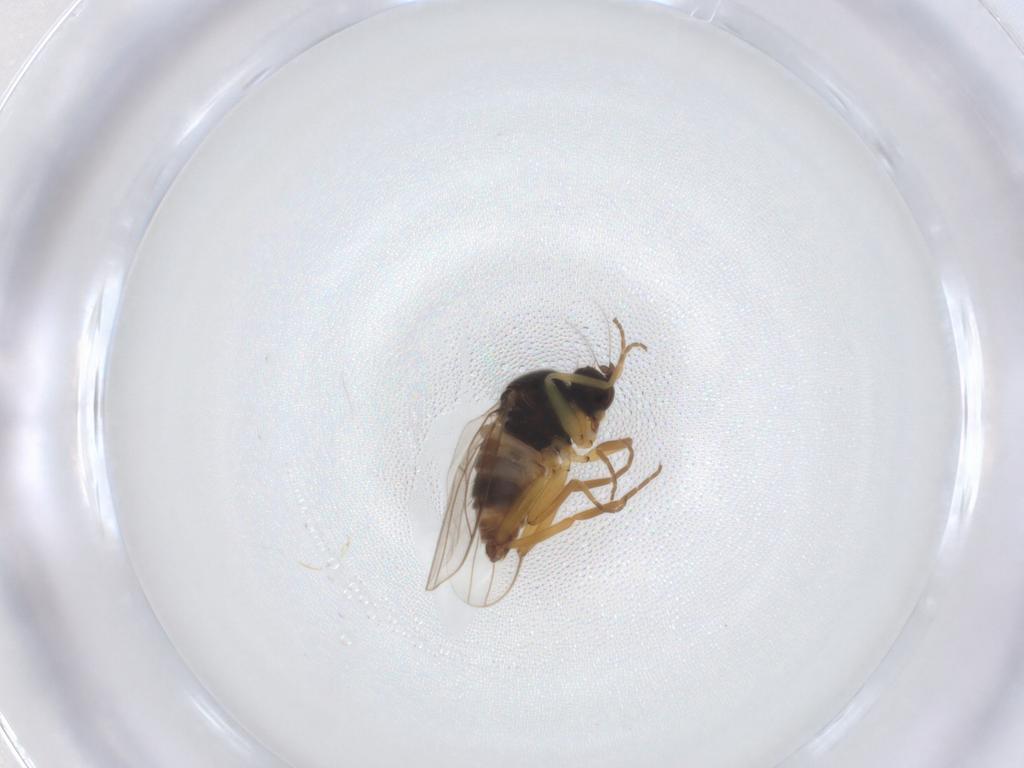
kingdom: Animalia
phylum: Arthropoda
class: Insecta
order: Diptera
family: Hybotidae
